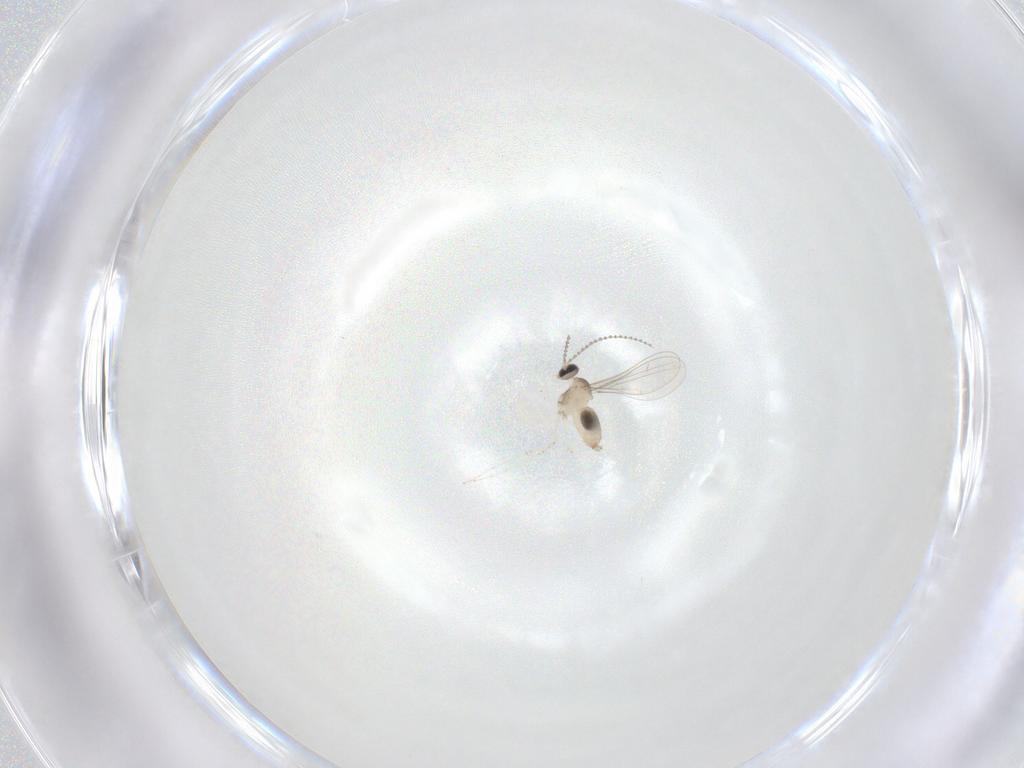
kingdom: Animalia
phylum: Arthropoda
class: Insecta
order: Diptera
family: Cecidomyiidae
